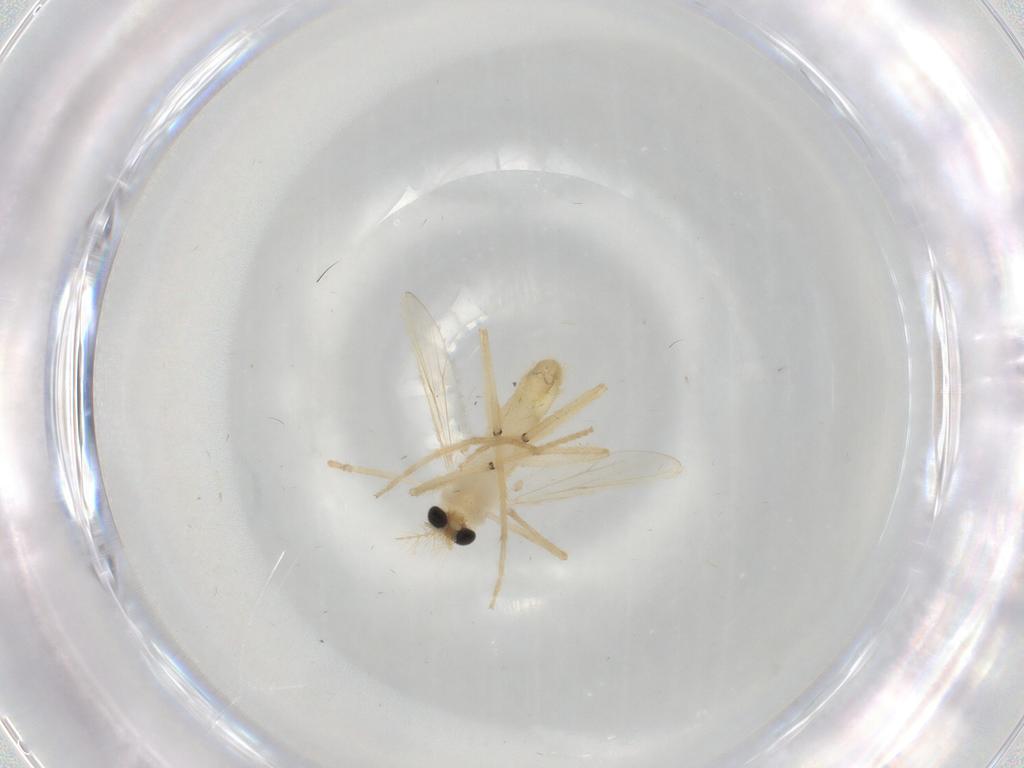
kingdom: Animalia
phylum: Arthropoda
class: Insecta
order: Diptera
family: Chironomidae
